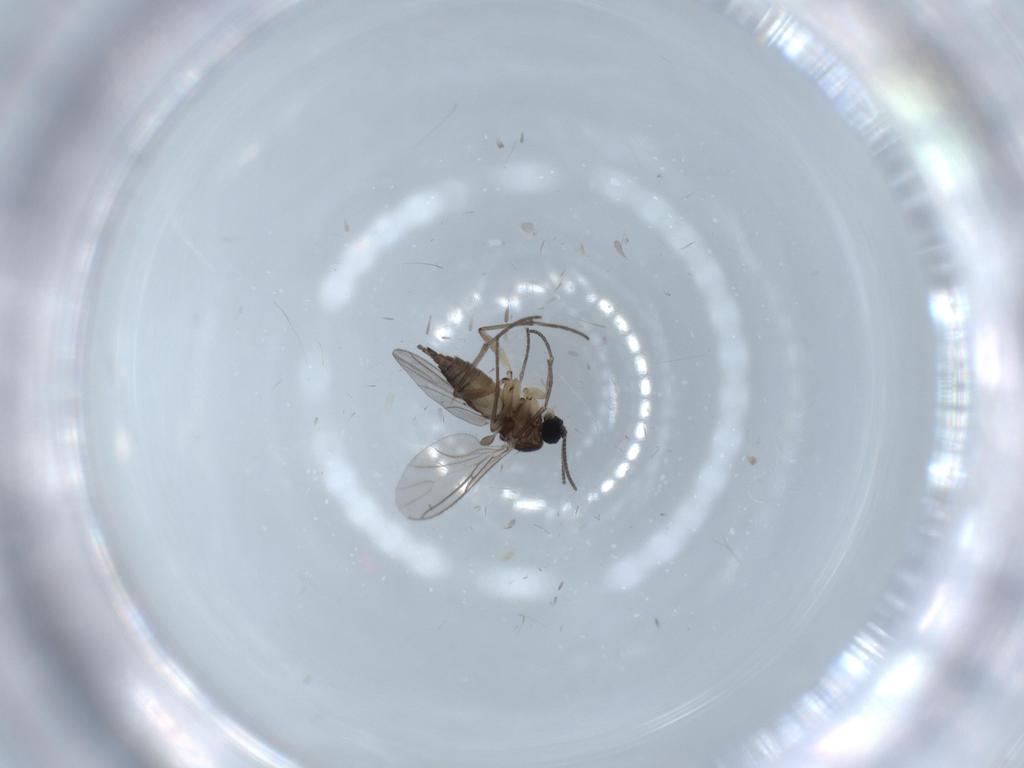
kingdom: Animalia
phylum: Arthropoda
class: Insecta
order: Diptera
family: Sciaridae
